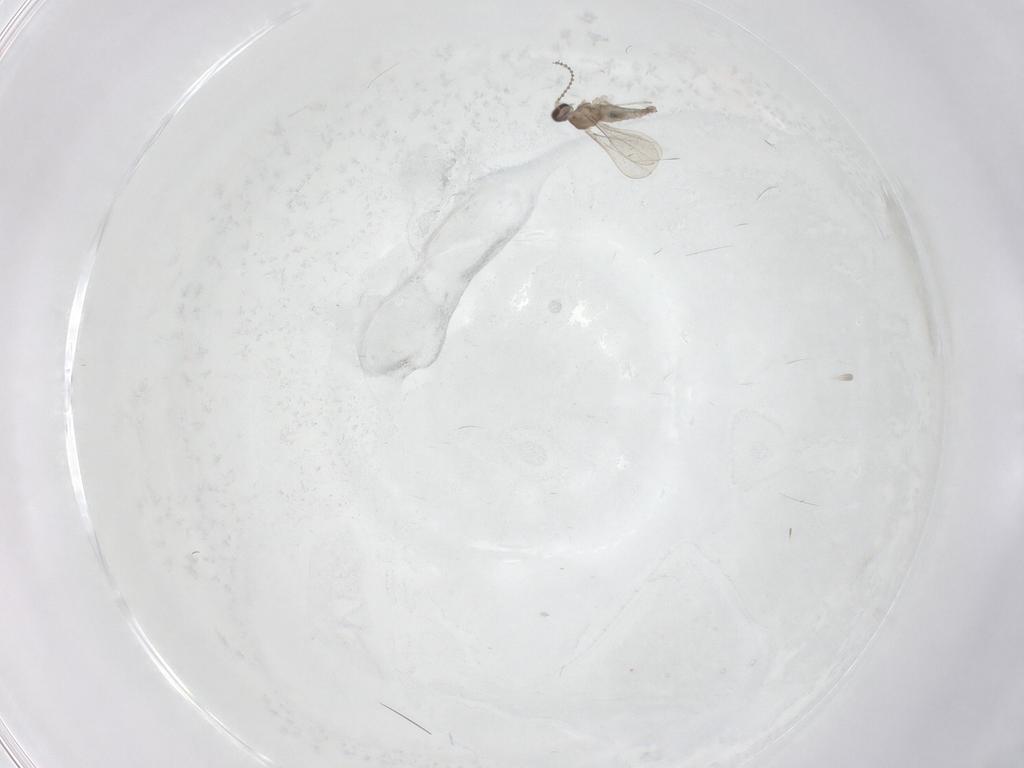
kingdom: Animalia
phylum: Arthropoda
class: Insecta
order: Diptera
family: Cecidomyiidae
